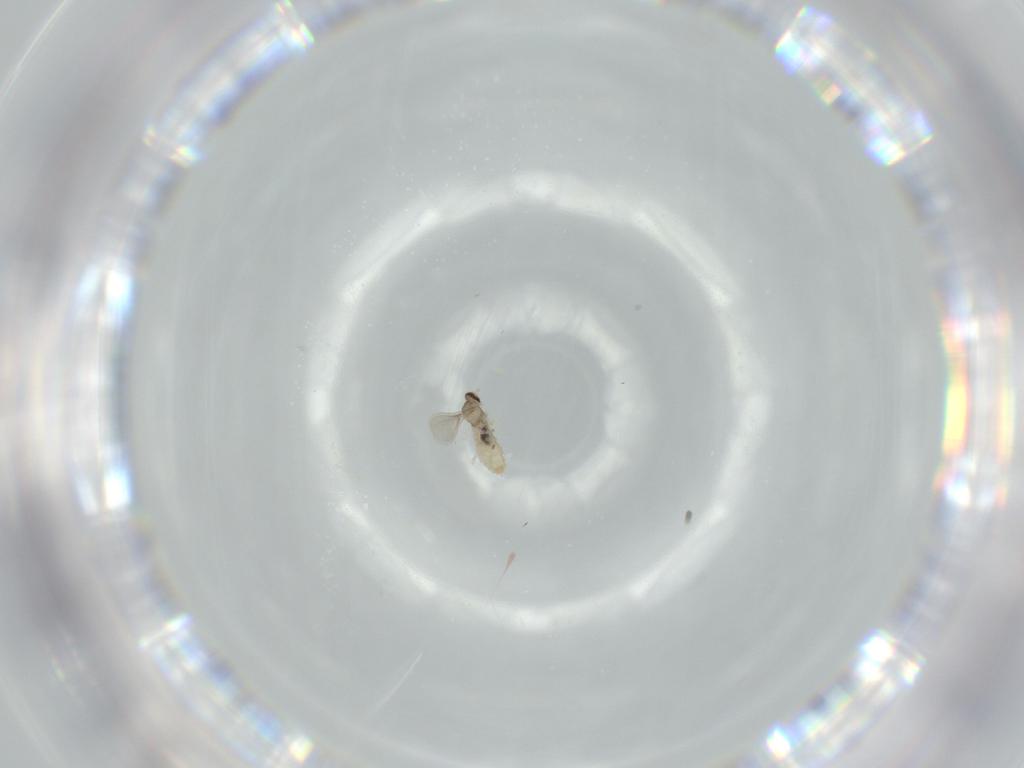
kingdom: Animalia
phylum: Arthropoda
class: Insecta
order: Diptera
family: Cecidomyiidae
